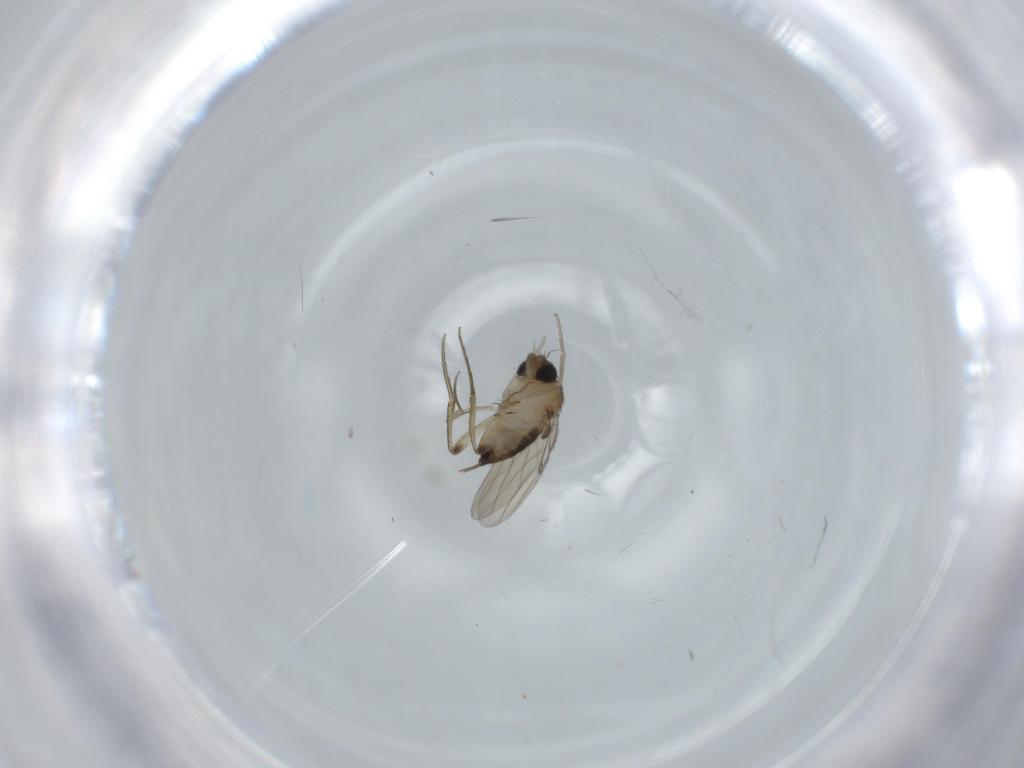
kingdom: Animalia
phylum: Arthropoda
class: Insecta
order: Diptera
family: Phoridae
